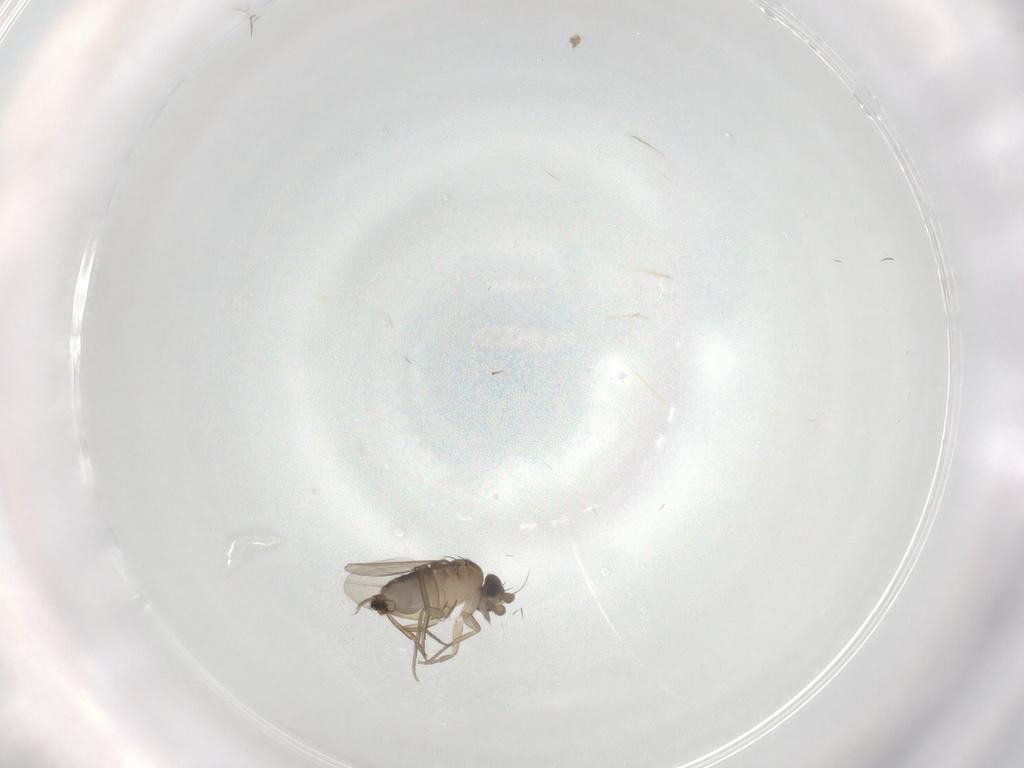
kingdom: Animalia
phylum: Arthropoda
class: Insecta
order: Diptera
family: Phoridae
